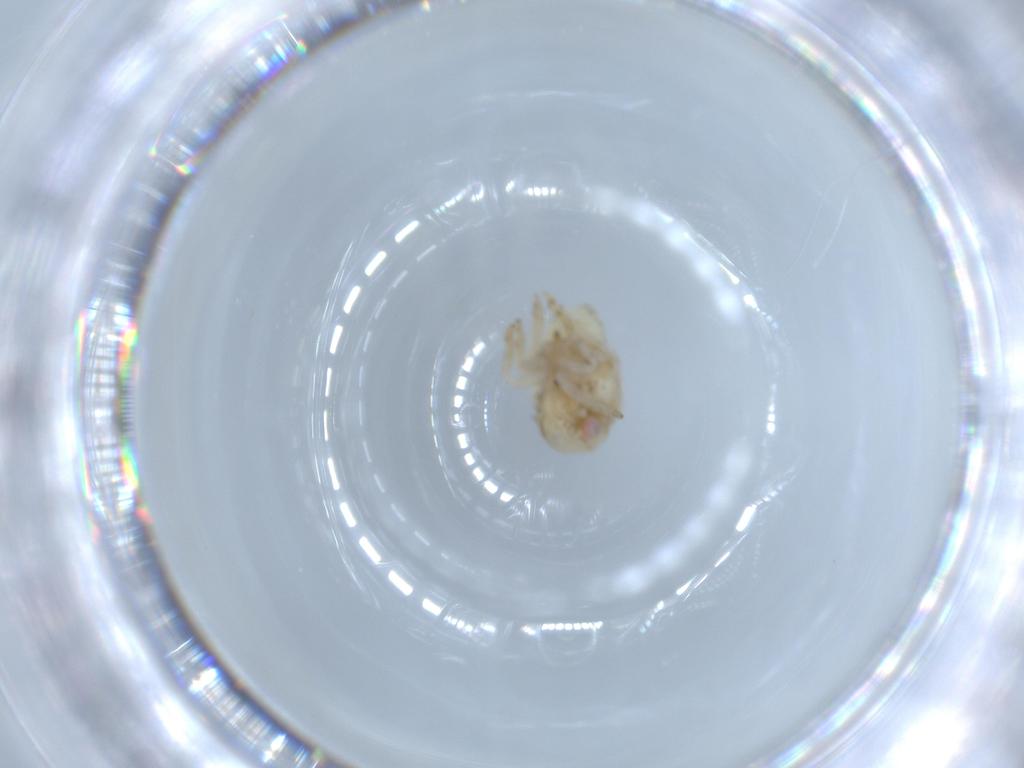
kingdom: Animalia
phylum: Arthropoda
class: Insecta
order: Hemiptera
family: Acanaloniidae
